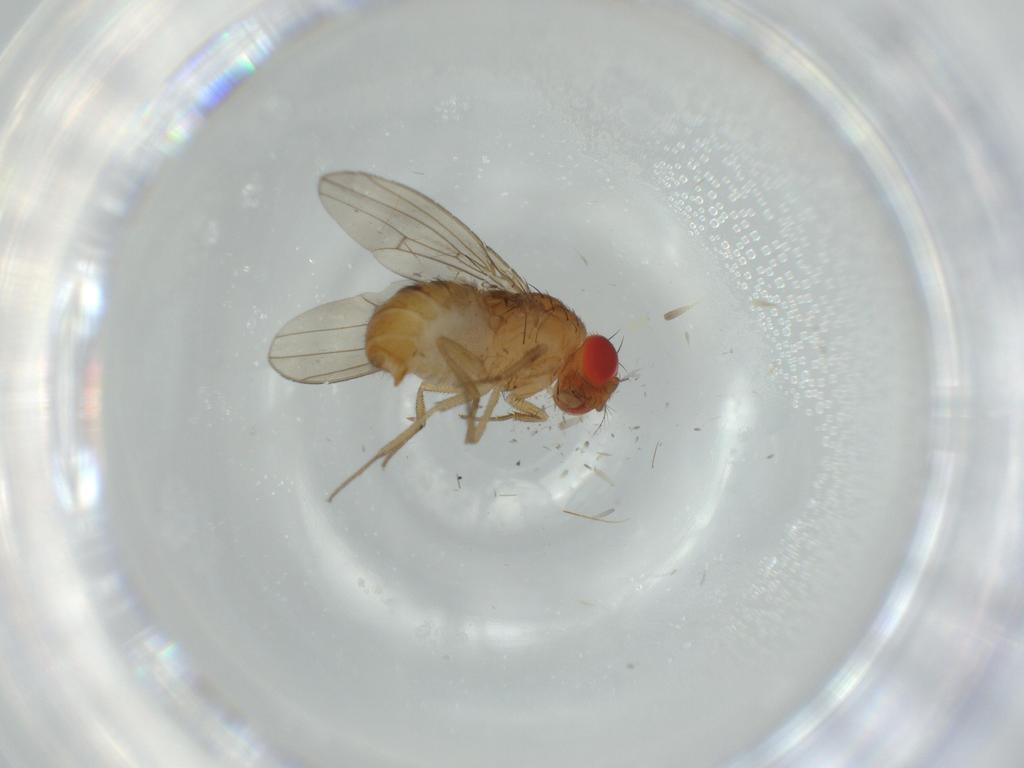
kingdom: Animalia
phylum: Arthropoda
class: Insecta
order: Diptera
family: Drosophilidae
